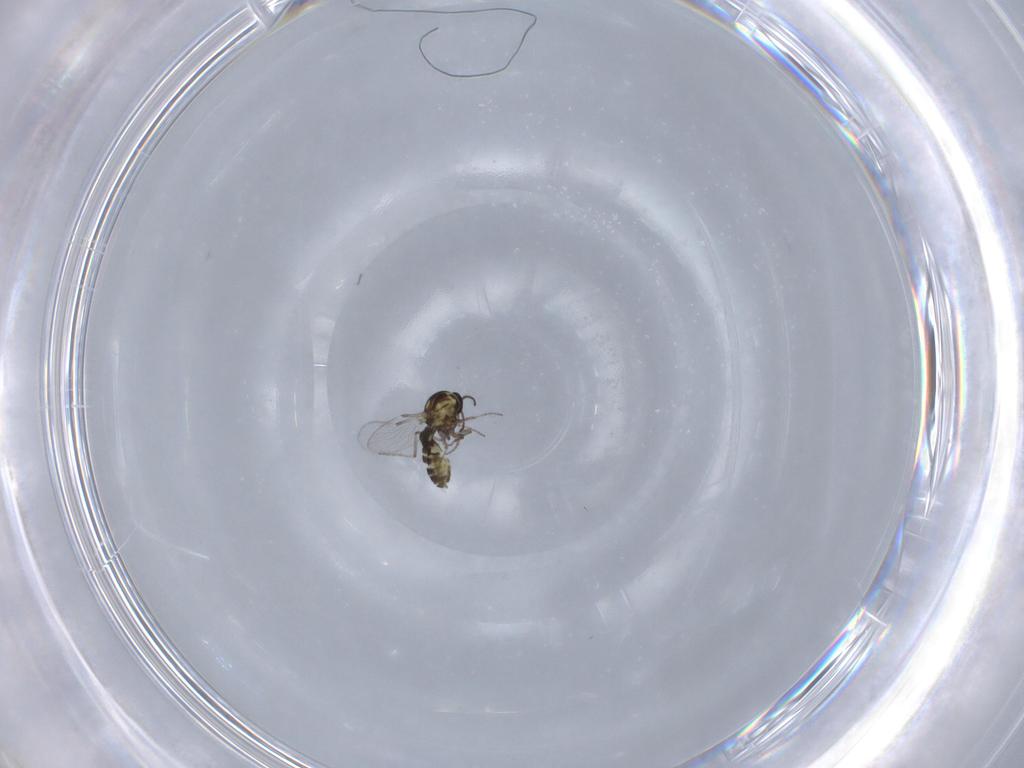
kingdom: Animalia
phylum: Arthropoda
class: Insecta
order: Diptera
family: Ceratopogonidae
